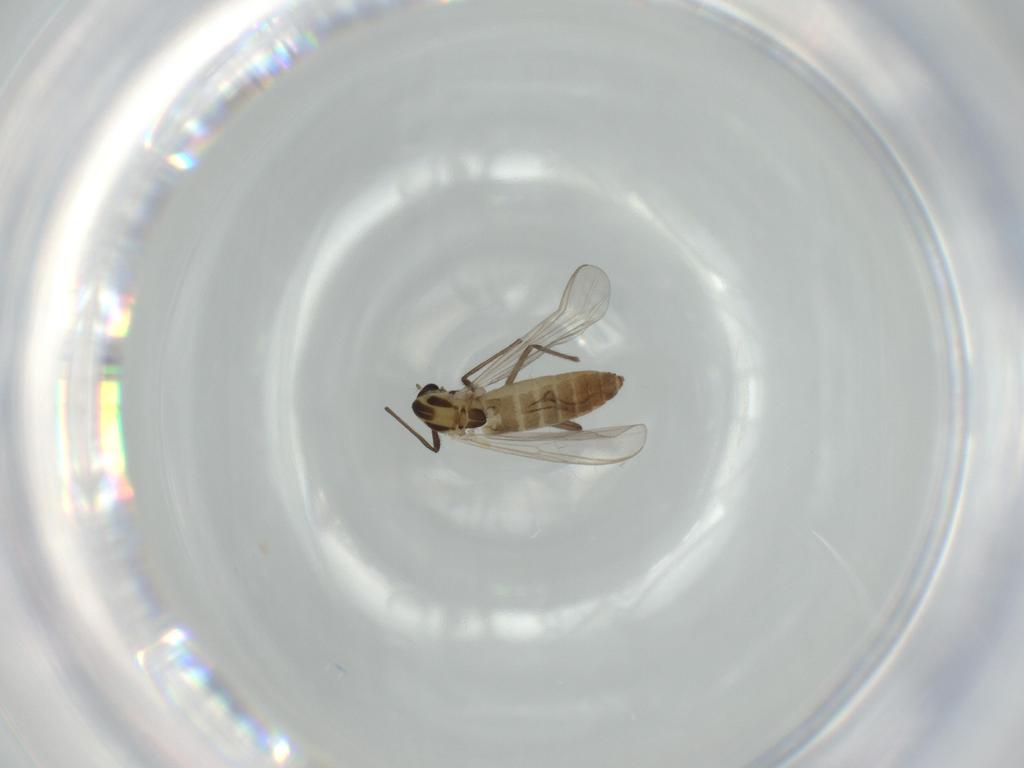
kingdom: Animalia
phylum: Arthropoda
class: Insecta
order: Diptera
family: Chironomidae
